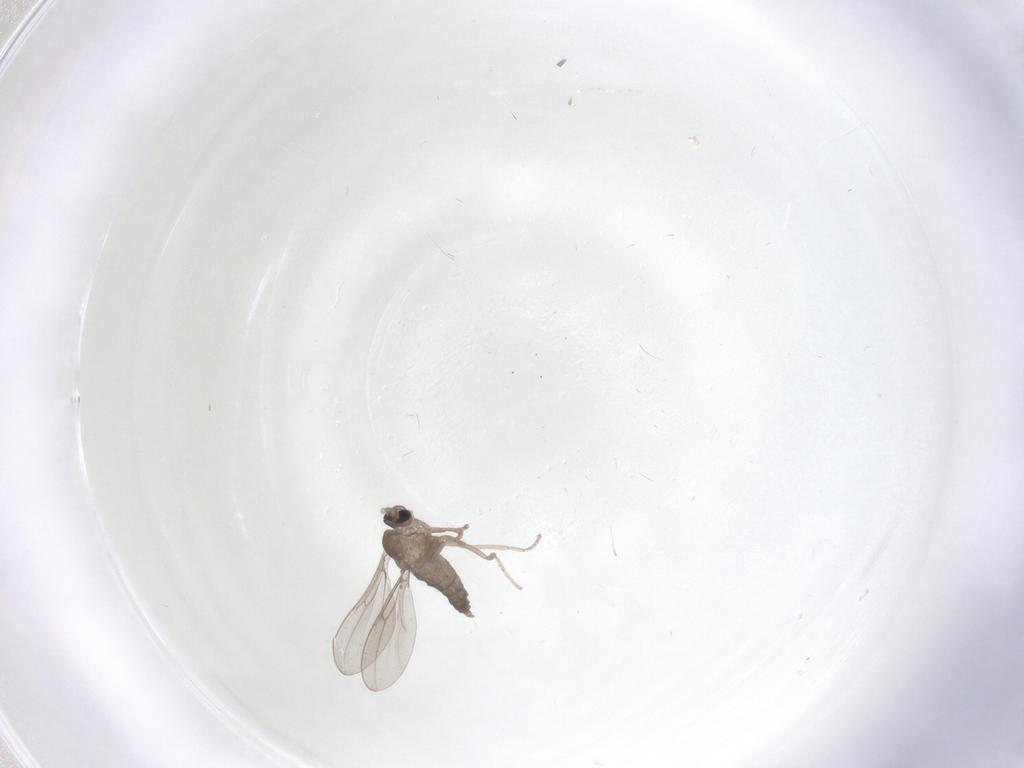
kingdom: Animalia
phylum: Arthropoda
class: Insecta
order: Diptera
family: Cecidomyiidae
